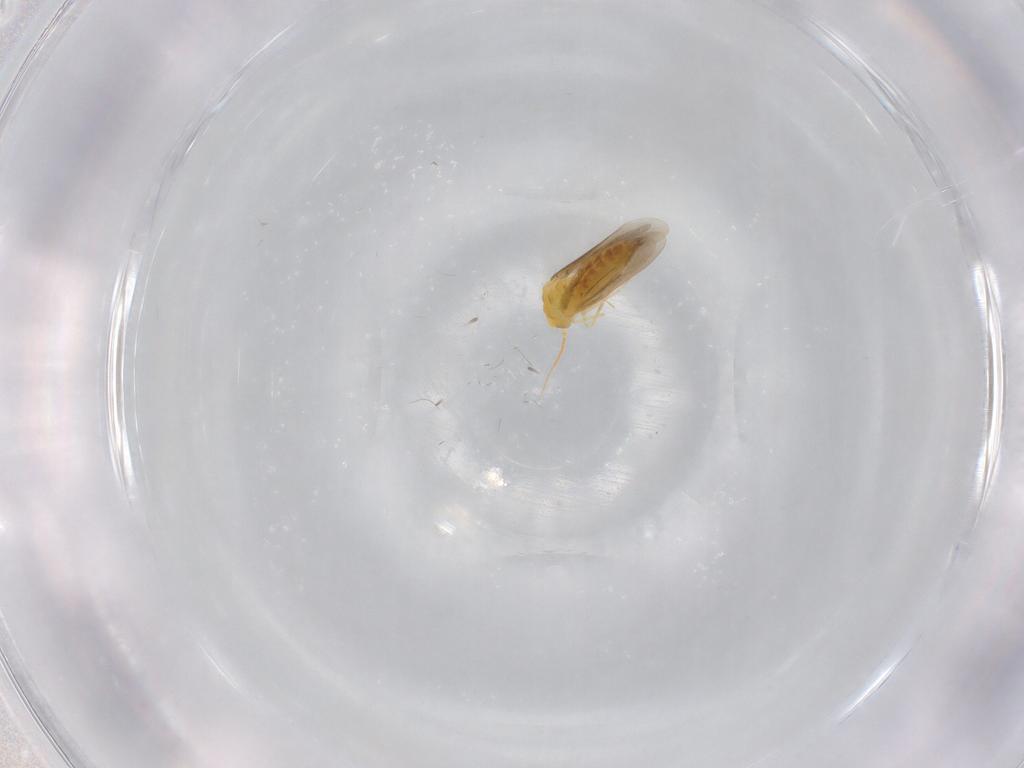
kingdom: Animalia
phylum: Arthropoda
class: Insecta
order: Hemiptera
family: Aleyrodidae
